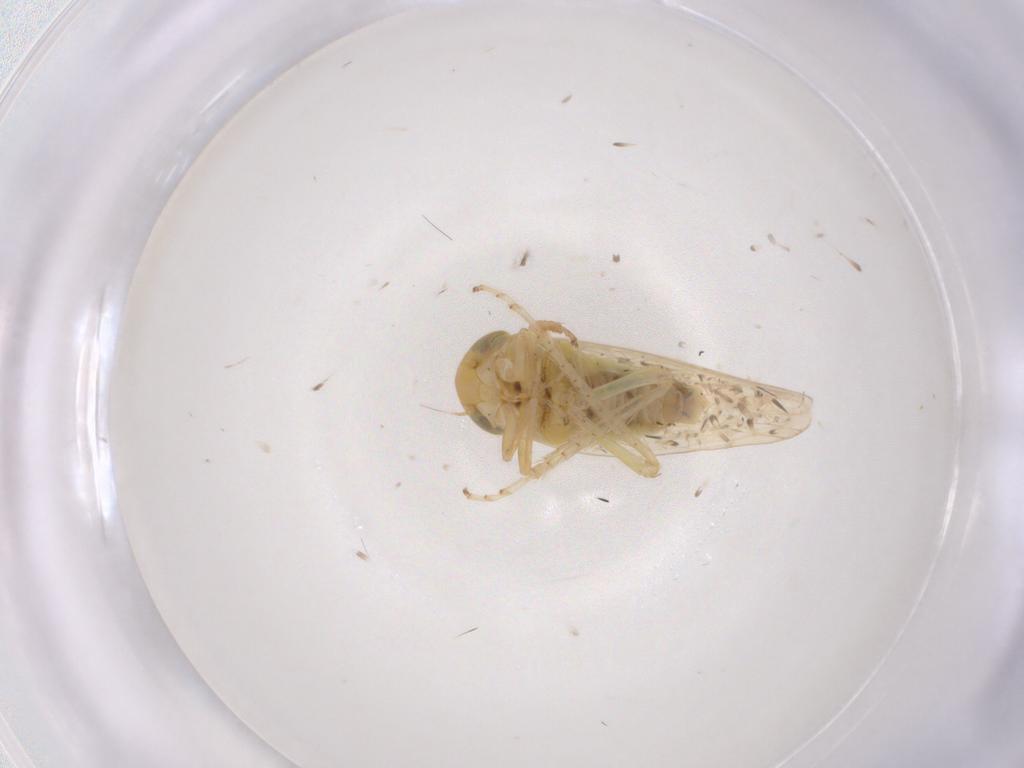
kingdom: Animalia
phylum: Arthropoda
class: Insecta
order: Hemiptera
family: Cicadellidae
